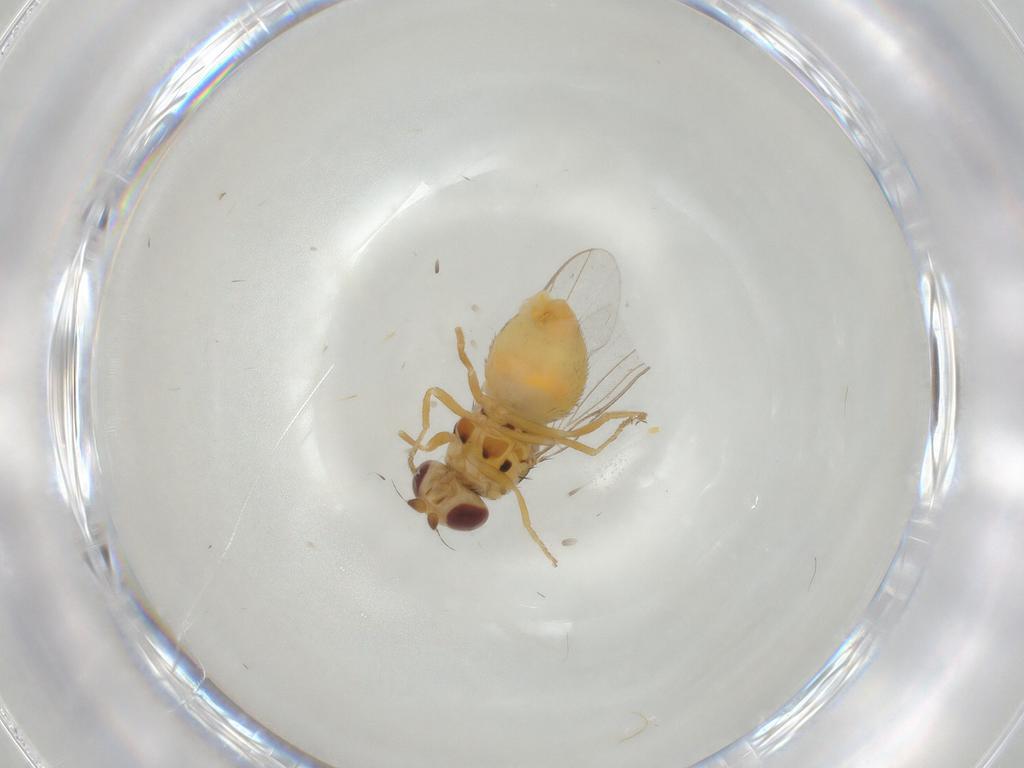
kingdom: Animalia
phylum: Arthropoda
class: Insecta
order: Diptera
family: Chloropidae
